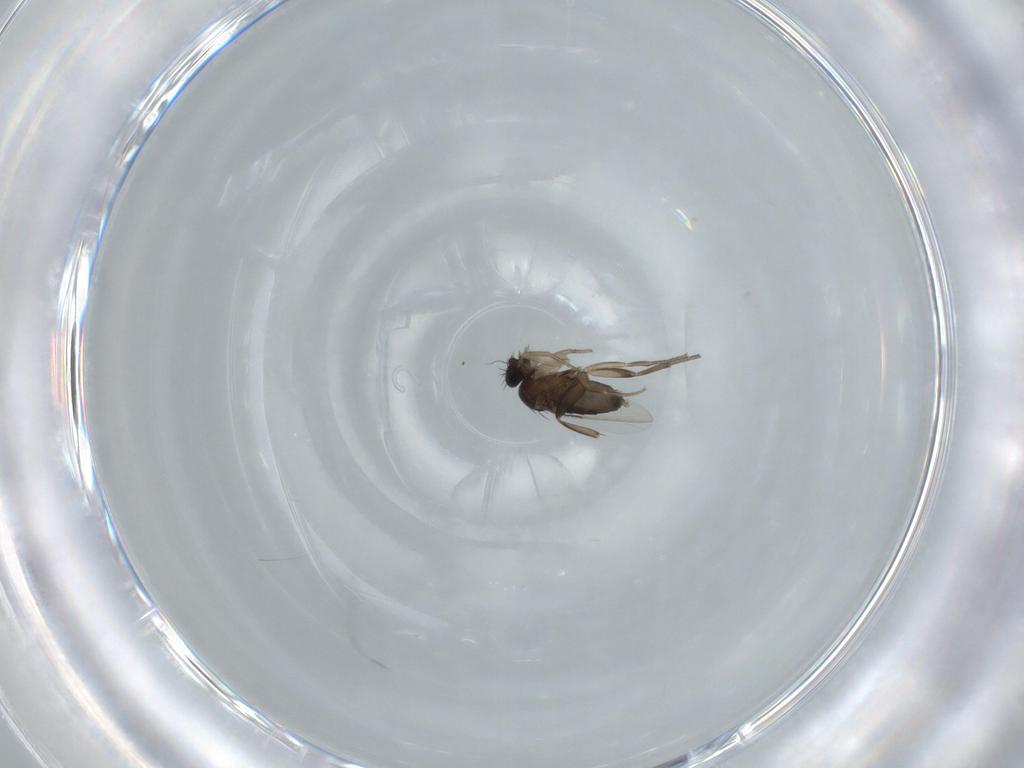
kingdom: Animalia
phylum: Arthropoda
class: Insecta
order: Diptera
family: Phoridae
